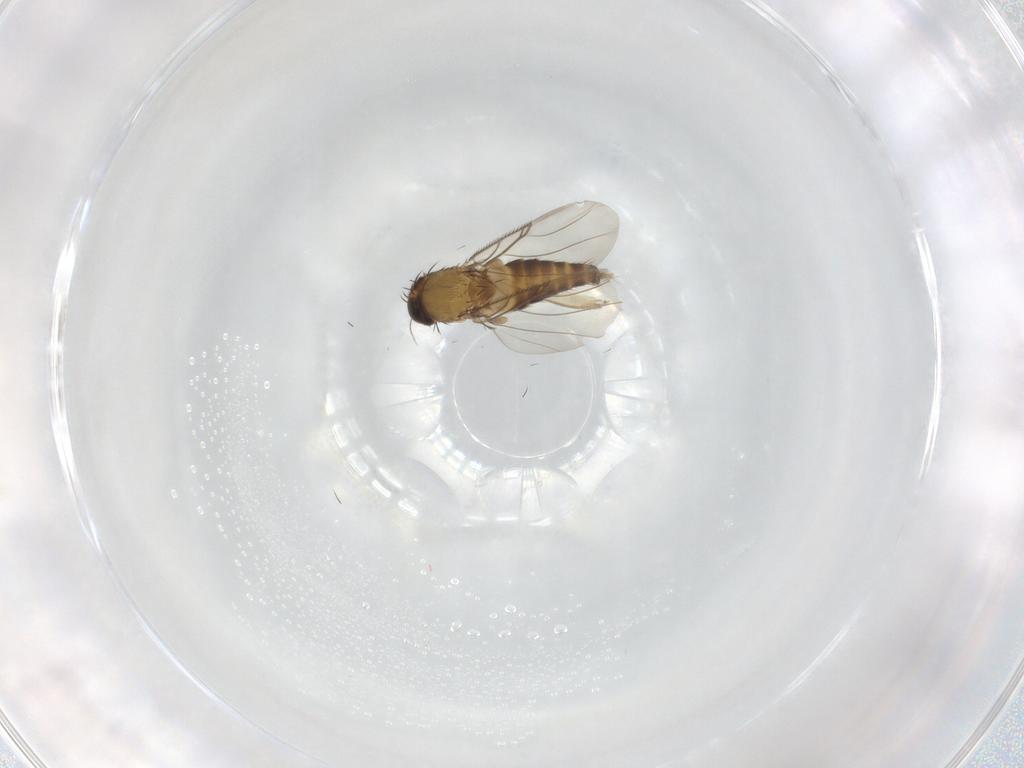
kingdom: Animalia
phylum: Arthropoda
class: Insecta
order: Diptera
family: Phoridae
